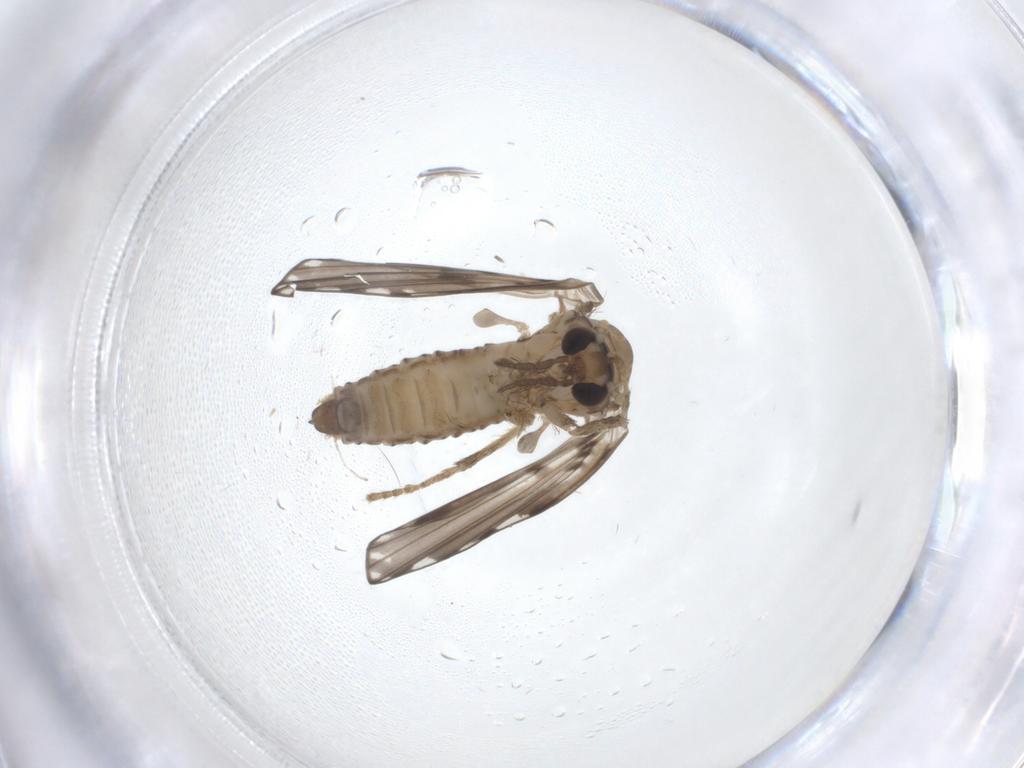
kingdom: Animalia
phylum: Arthropoda
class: Insecta
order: Diptera
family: Psychodidae
